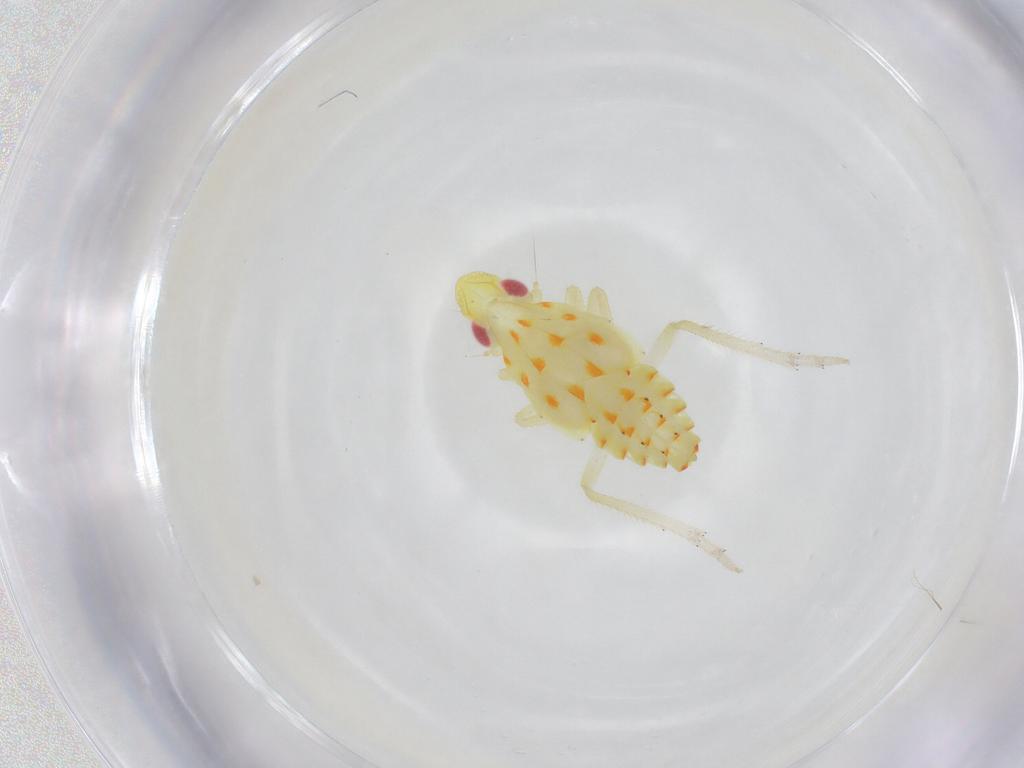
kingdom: Animalia
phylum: Arthropoda
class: Insecta
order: Hemiptera
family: Tropiduchidae
